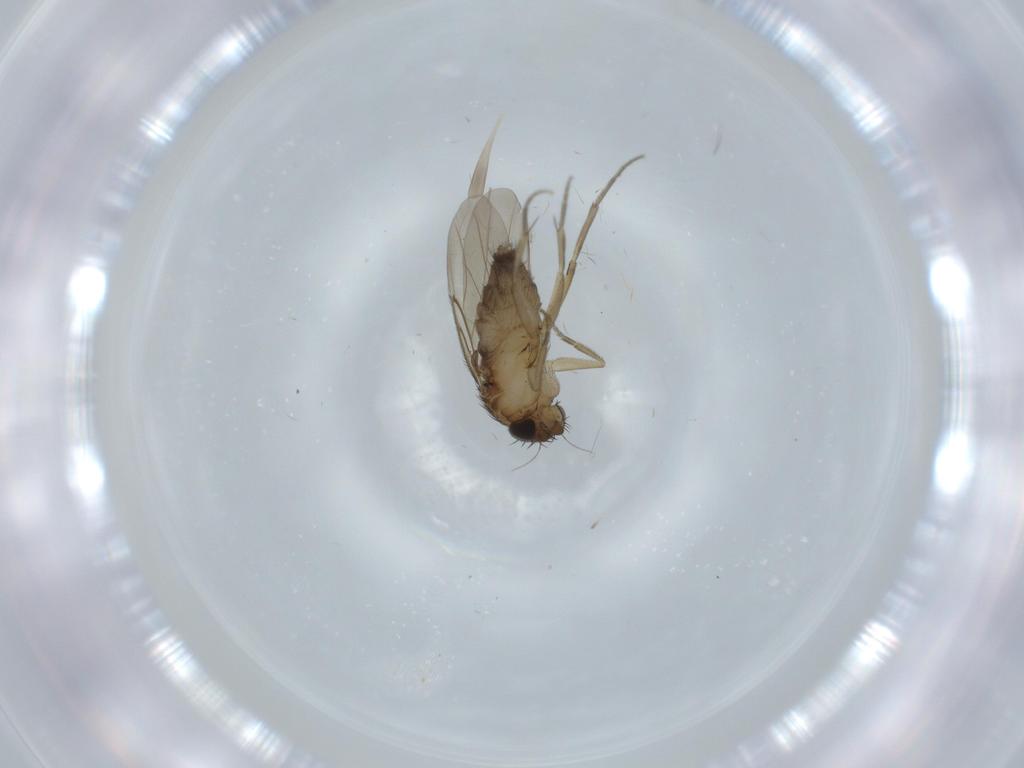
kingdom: Animalia
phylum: Arthropoda
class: Insecta
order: Diptera
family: Phoridae
